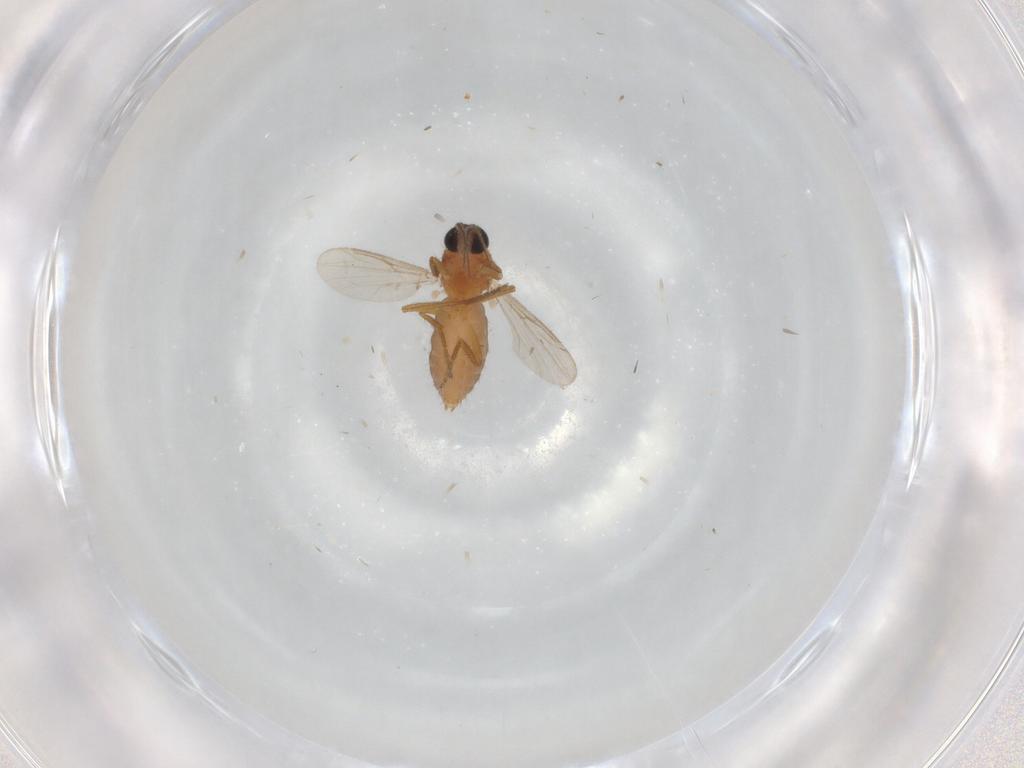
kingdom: Animalia
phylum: Arthropoda
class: Insecta
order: Diptera
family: Ceratopogonidae
